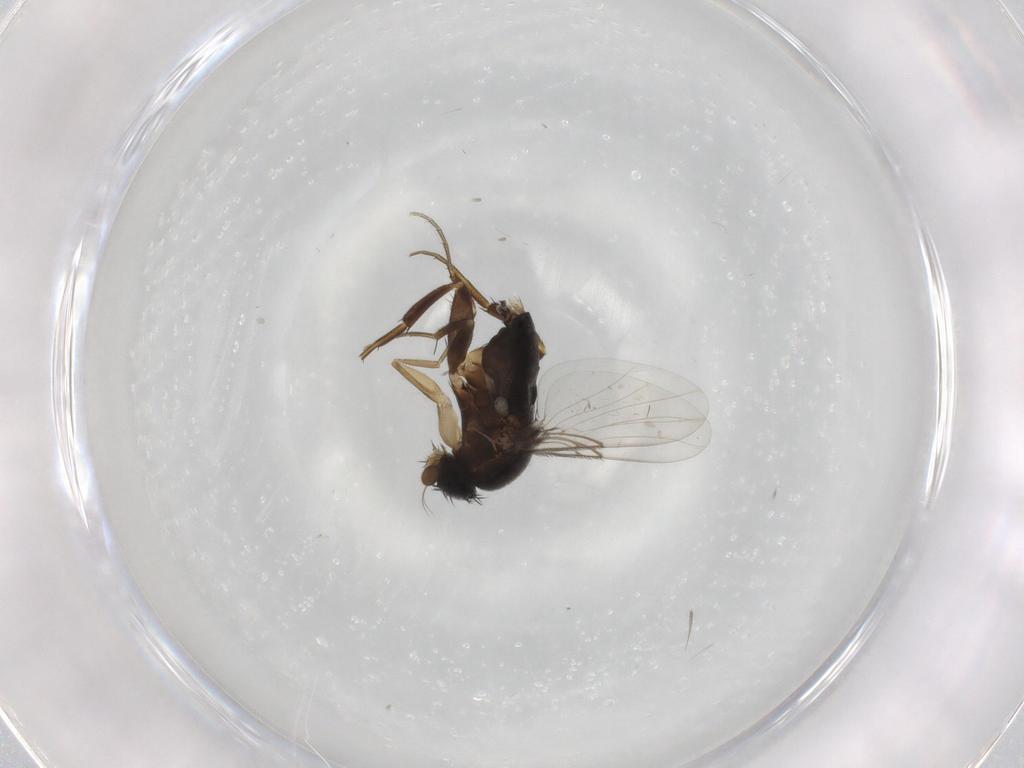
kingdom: Animalia
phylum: Arthropoda
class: Insecta
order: Diptera
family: Phoridae
